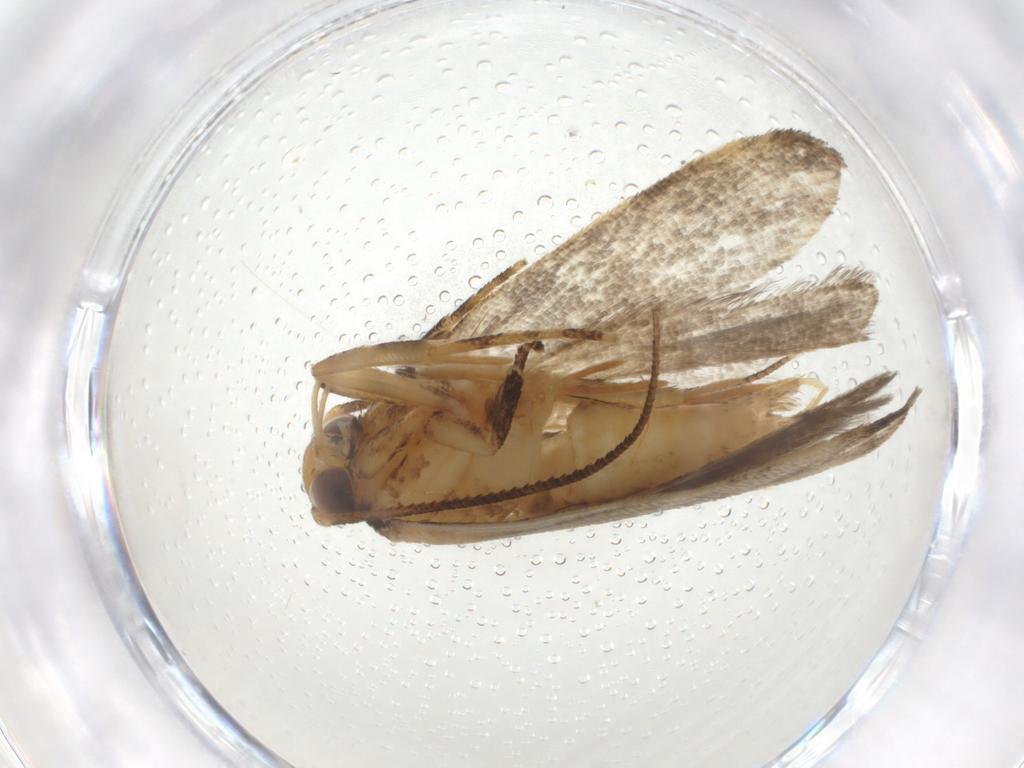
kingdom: Animalia
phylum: Arthropoda
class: Insecta
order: Lepidoptera
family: Gelechiidae
